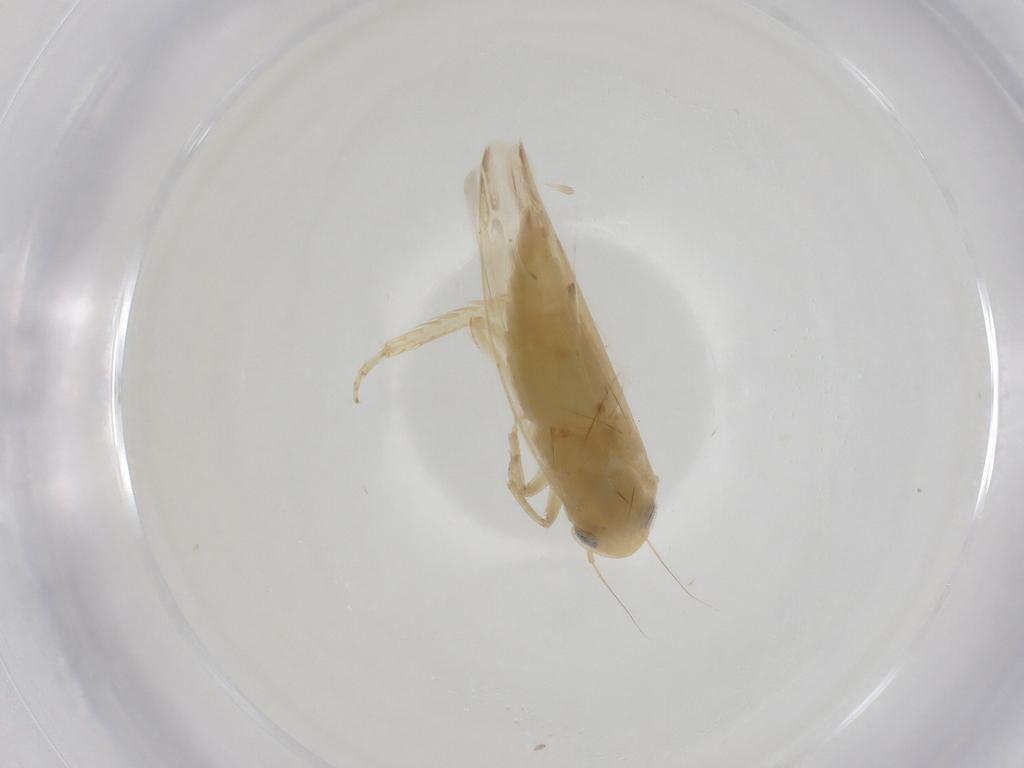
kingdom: Animalia
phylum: Arthropoda
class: Insecta
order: Hemiptera
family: Cicadellidae
